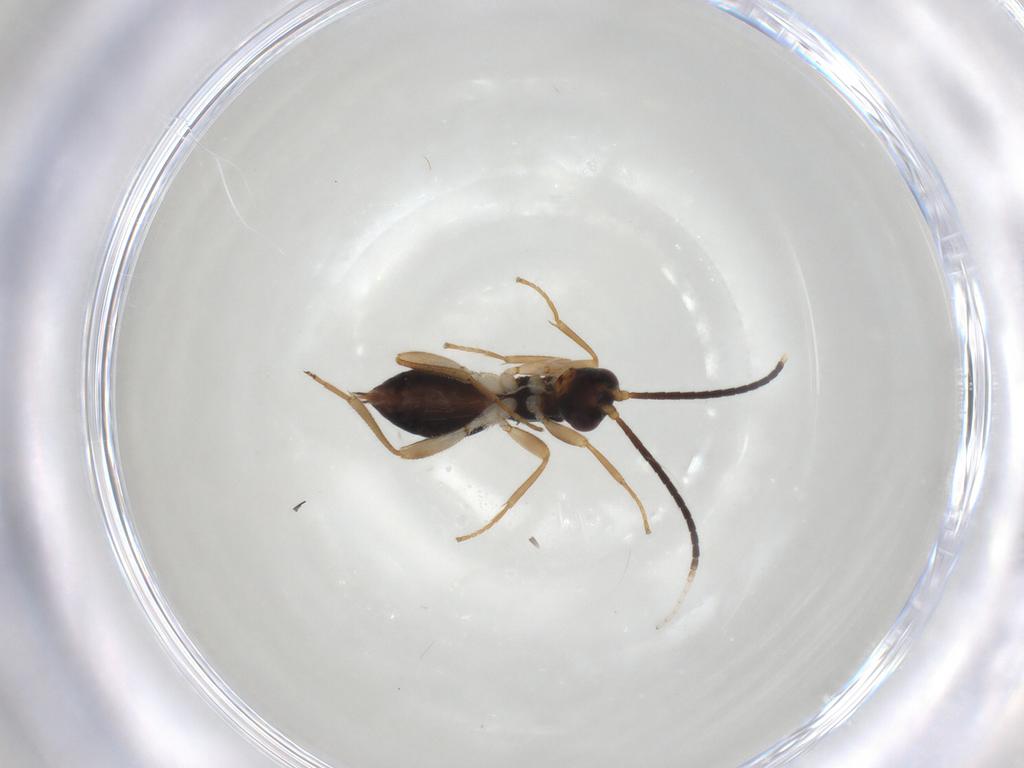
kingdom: Animalia
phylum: Arthropoda
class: Insecta
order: Hymenoptera
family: Braconidae
